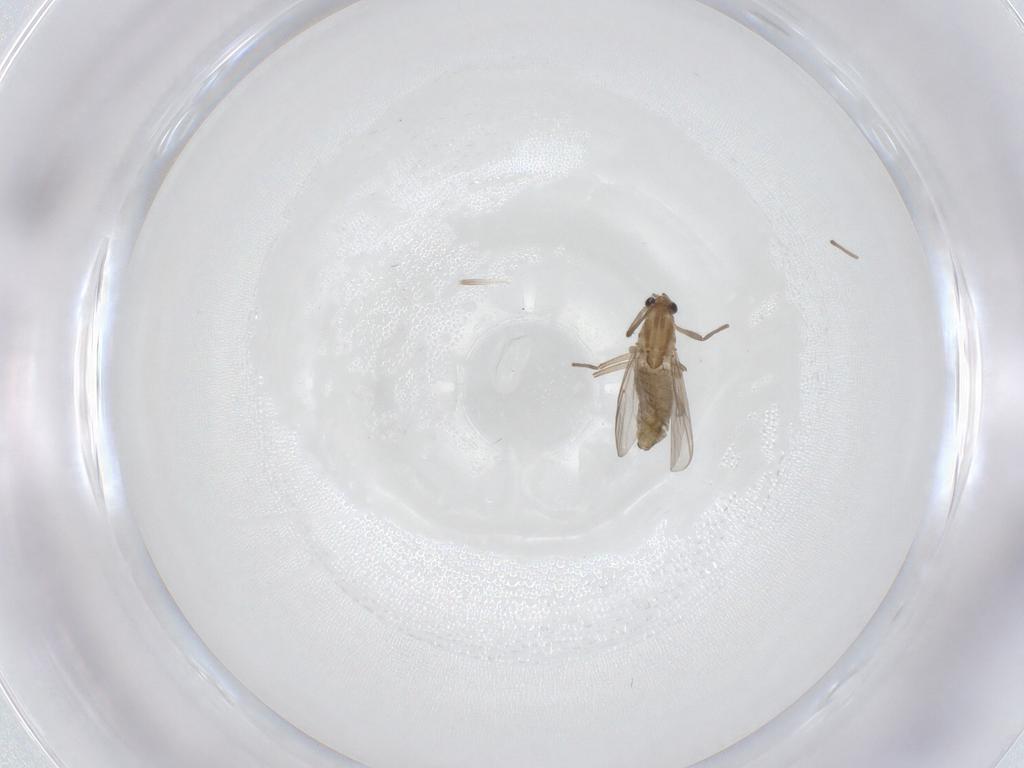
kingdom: Animalia
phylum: Arthropoda
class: Insecta
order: Diptera
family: Chironomidae
